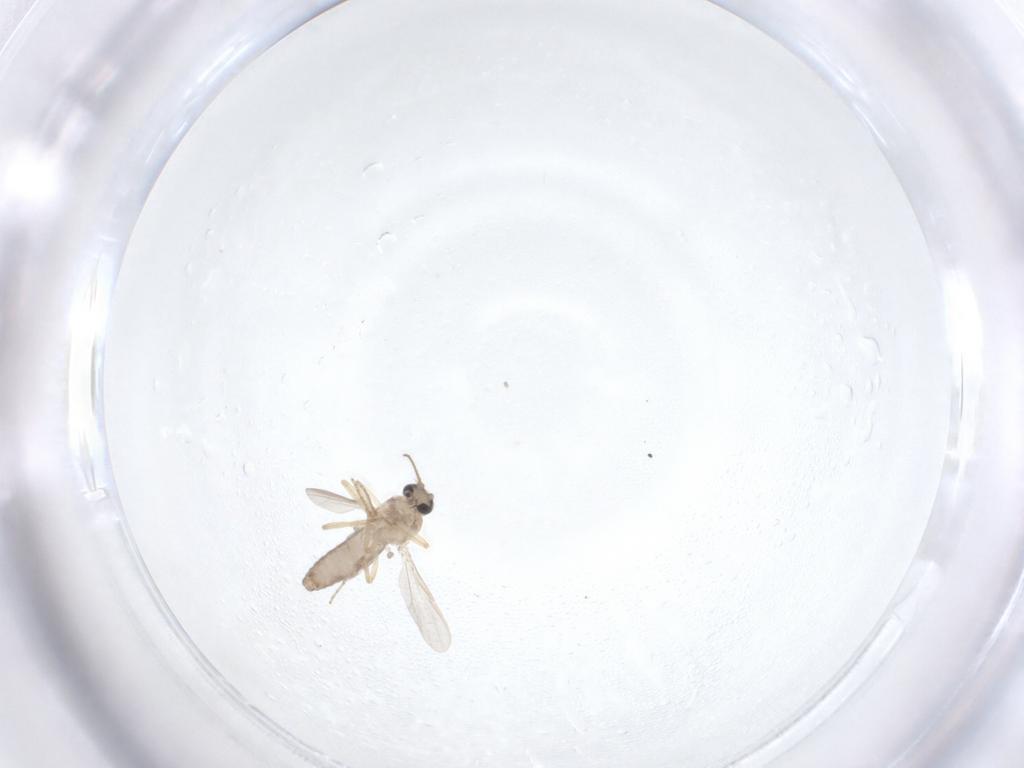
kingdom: Animalia
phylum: Arthropoda
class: Insecta
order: Diptera
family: Ceratopogonidae
